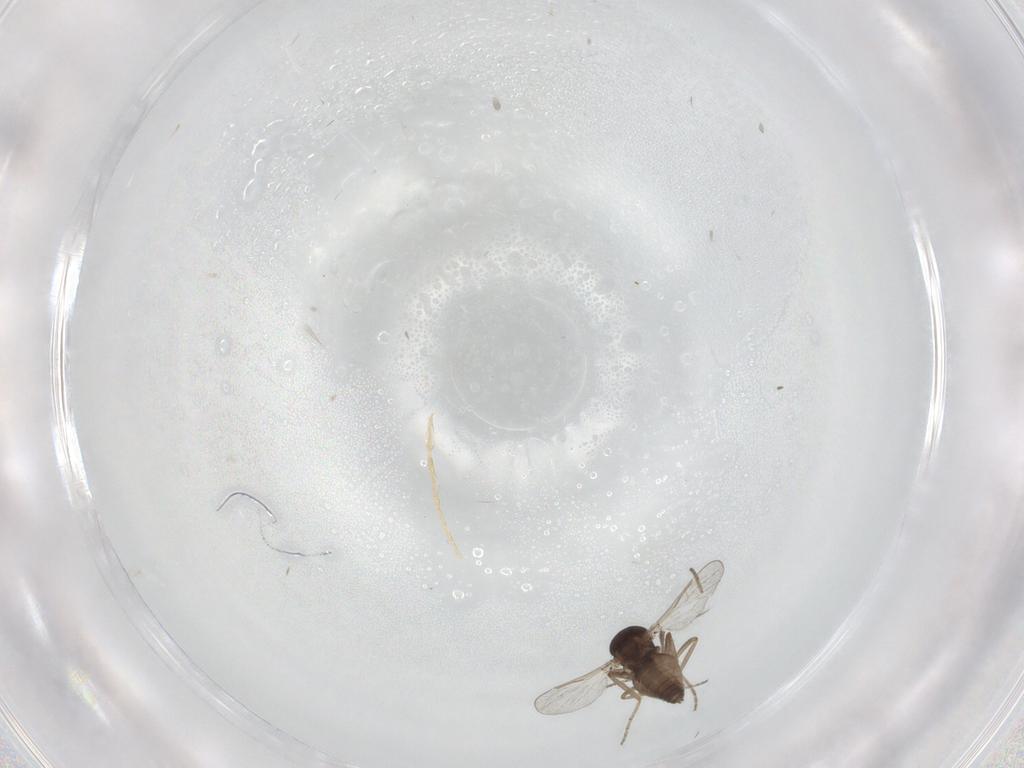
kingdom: Animalia
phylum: Arthropoda
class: Insecta
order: Diptera
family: Ceratopogonidae
